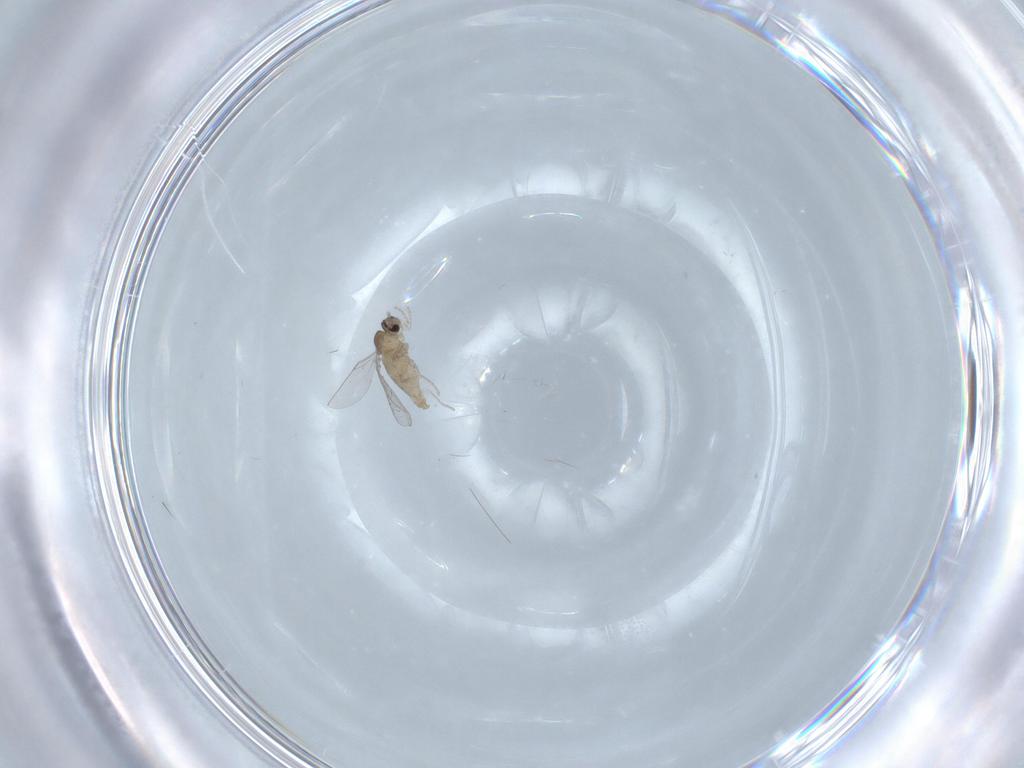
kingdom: Animalia
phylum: Arthropoda
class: Insecta
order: Diptera
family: Cecidomyiidae
